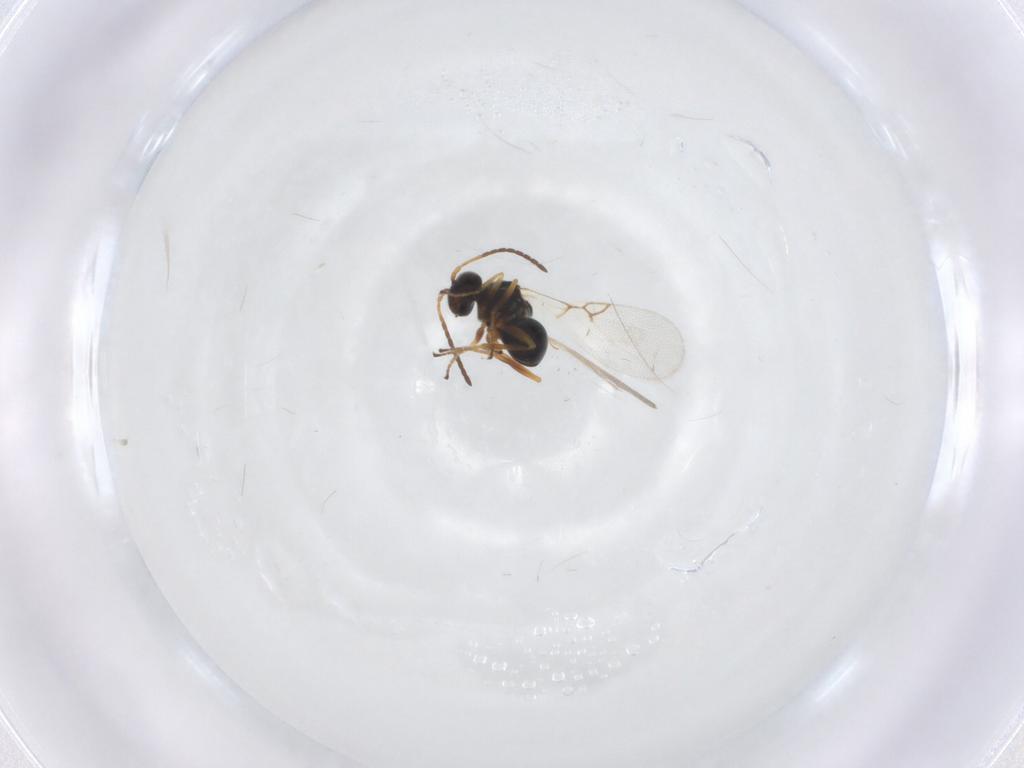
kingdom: Animalia
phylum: Arthropoda
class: Insecta
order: Hymenoptera
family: Figitidae
